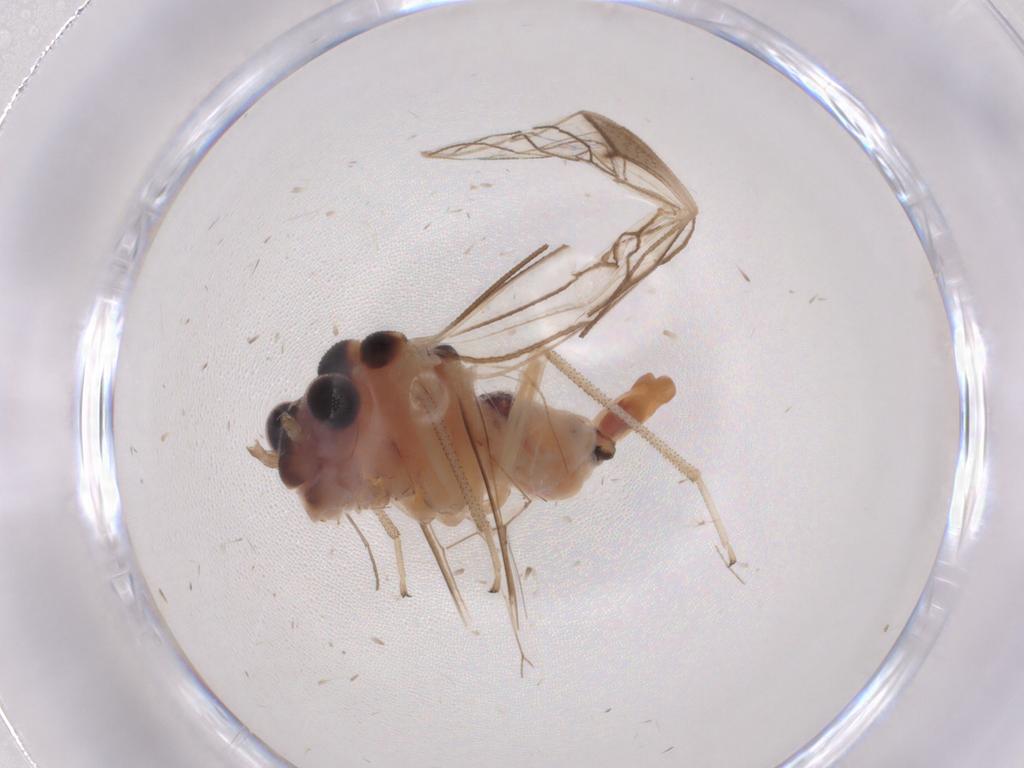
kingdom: Animalia
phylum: Arthropoda
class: Insecta
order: Psocodea
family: Amphipsocidae
